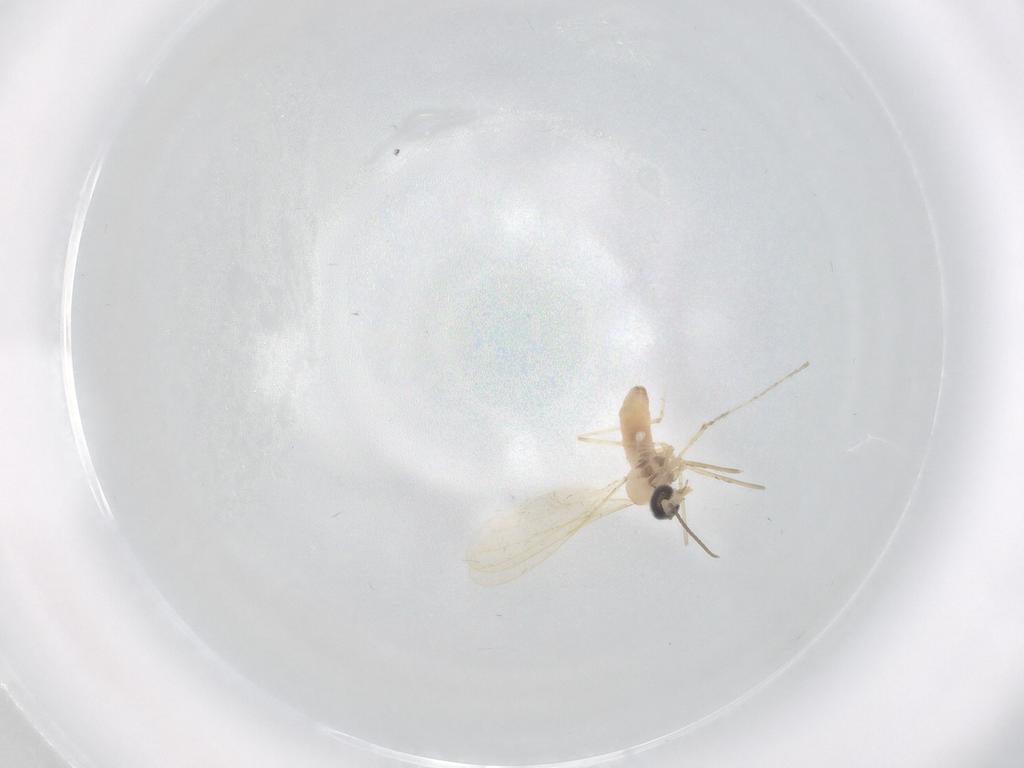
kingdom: Animalia
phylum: Arthropoda
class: Insecta
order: Diptera
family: Cecidomyiidae
